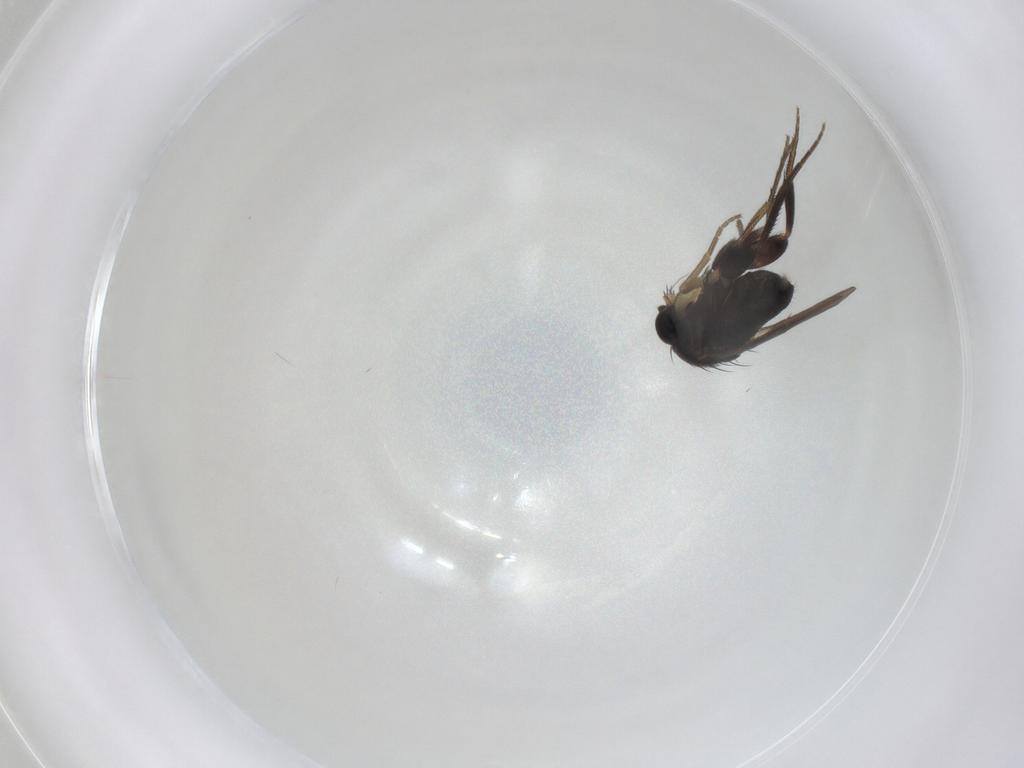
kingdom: Animalia
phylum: Arthropoda
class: Insecta
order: Diptera
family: Phoridae
